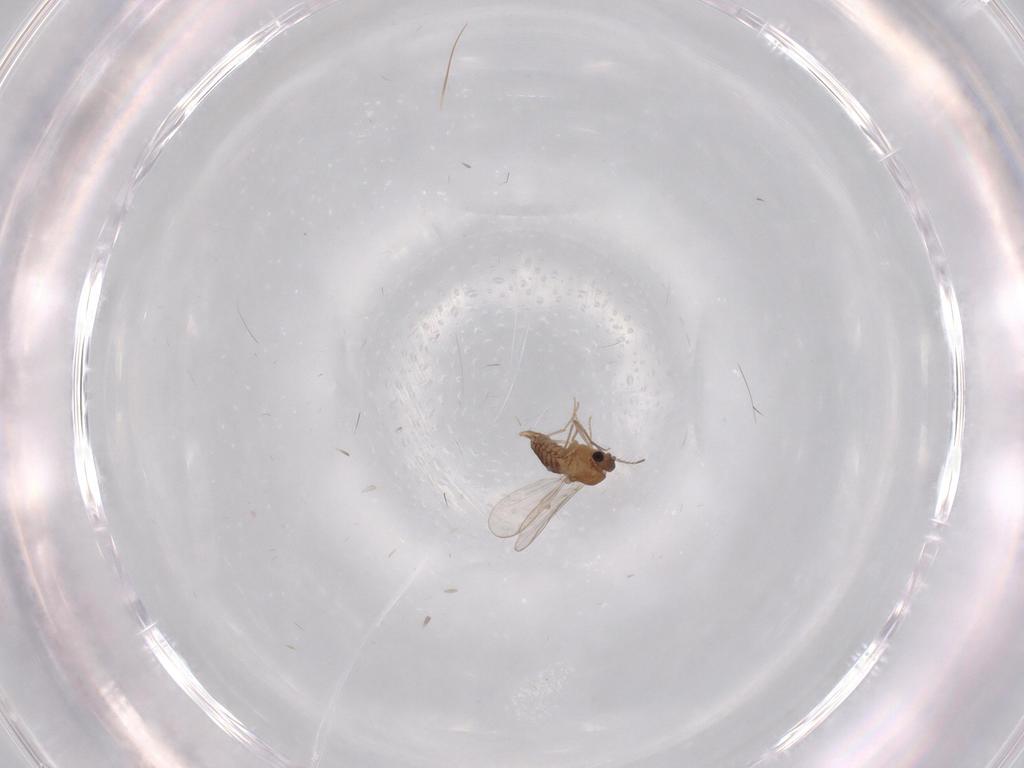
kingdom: Animalia
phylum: Arthropoda
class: Insecta
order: Diptera
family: Chironomidae
